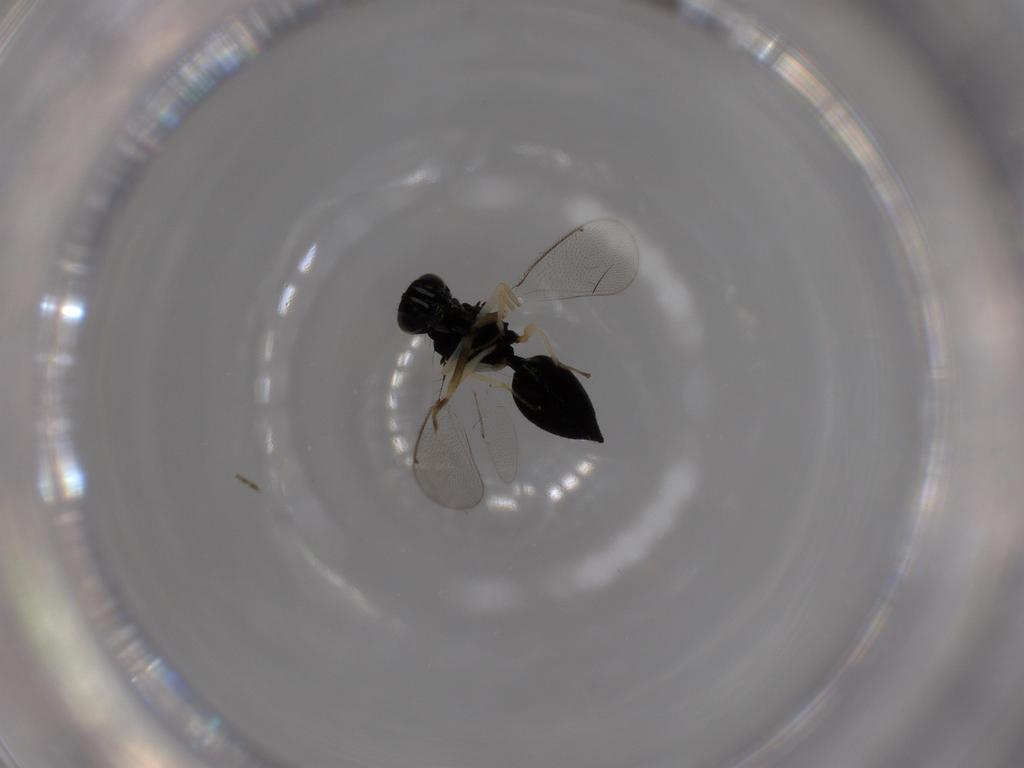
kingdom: Animalia
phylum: Arthropoda
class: Insecta
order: Hymenoptera
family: Eulophidae
